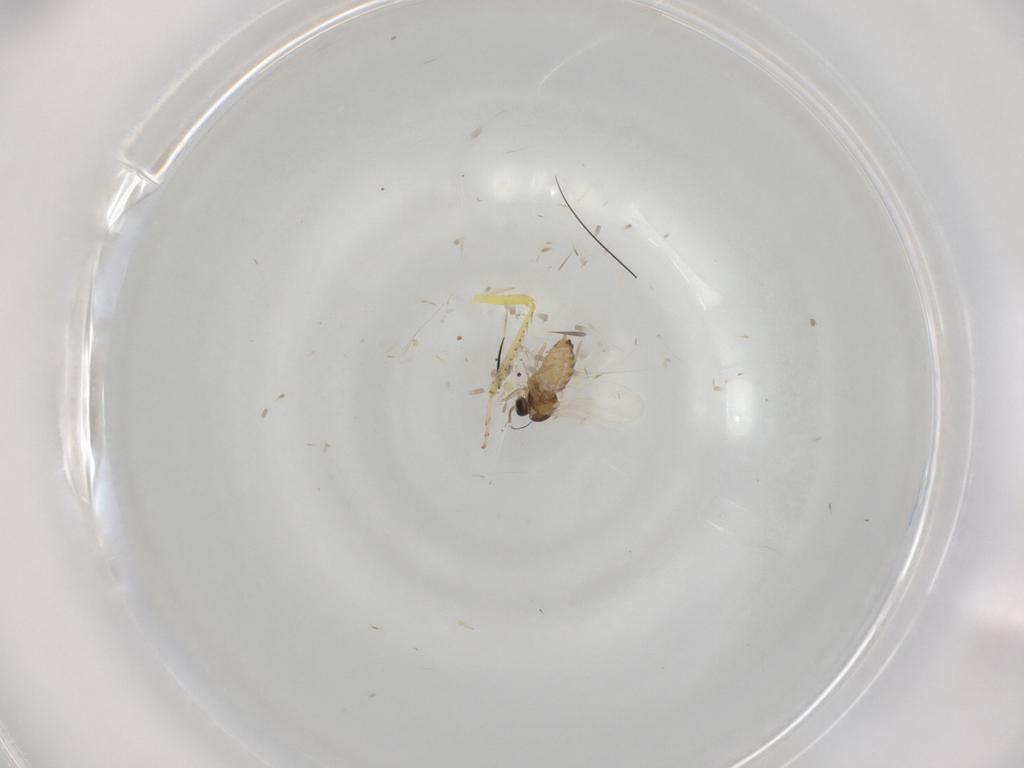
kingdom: Animalia
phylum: Arthropoda
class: Insecta
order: Diptera
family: Cecidomyiidae
